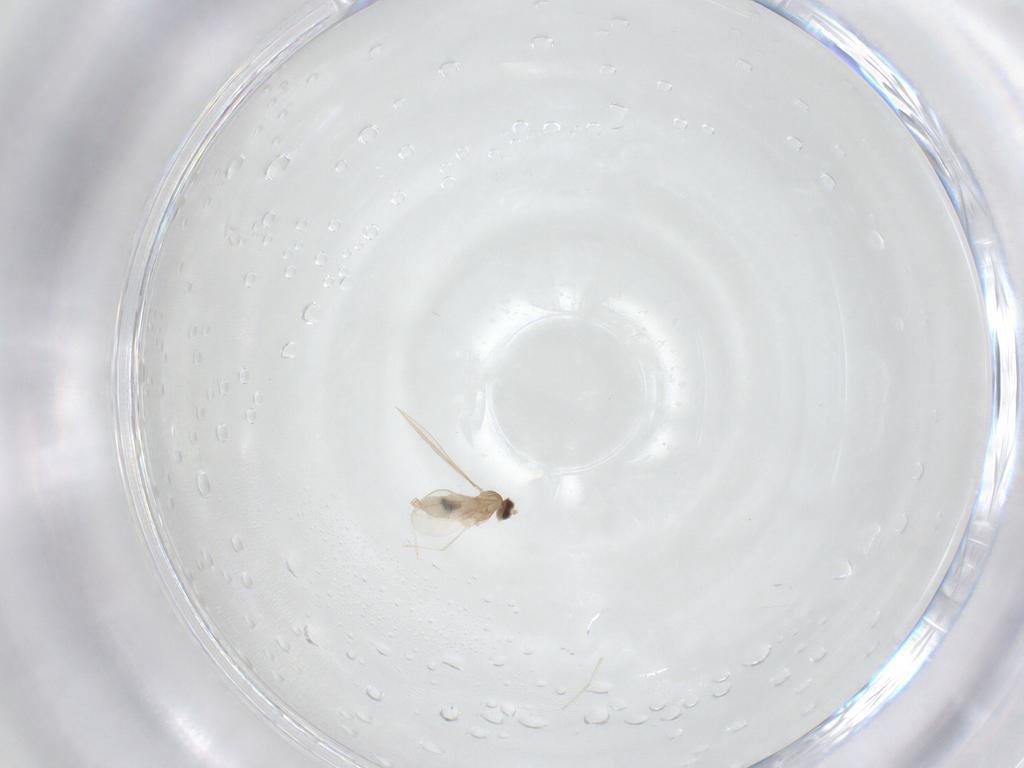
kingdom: Animalia
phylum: Arthropoda
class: Insecta
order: Diptera
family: Cecidomyiidae
